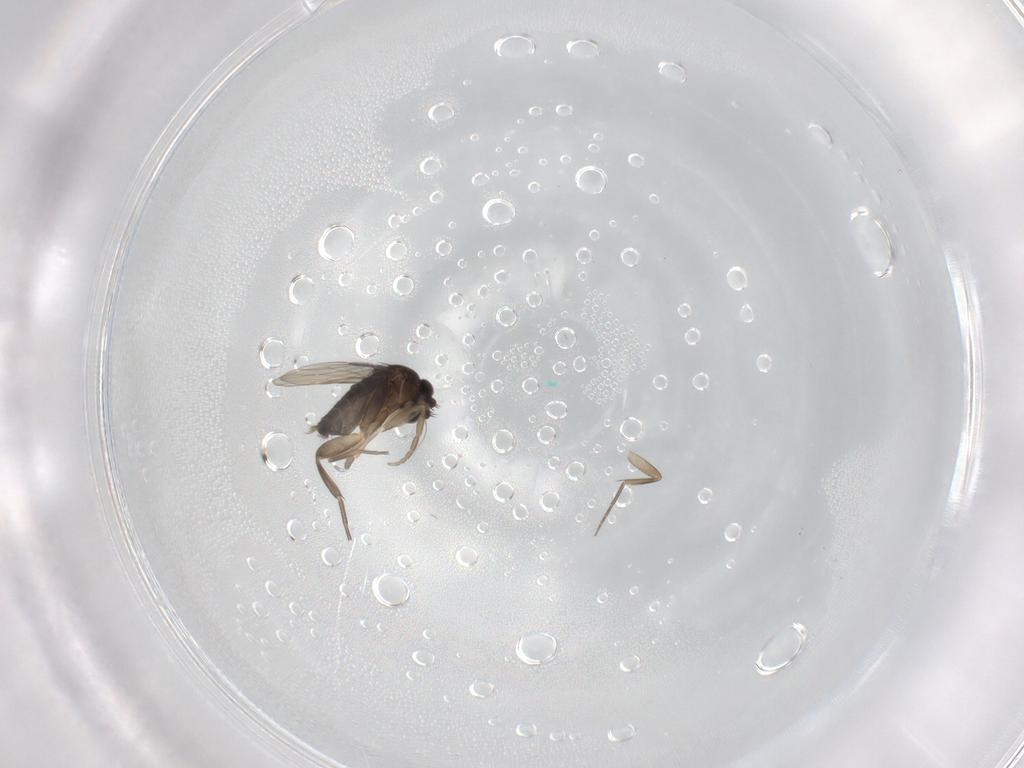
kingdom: Animalia
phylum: Arthropoda
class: Insecta
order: Diptera
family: Phoridae
